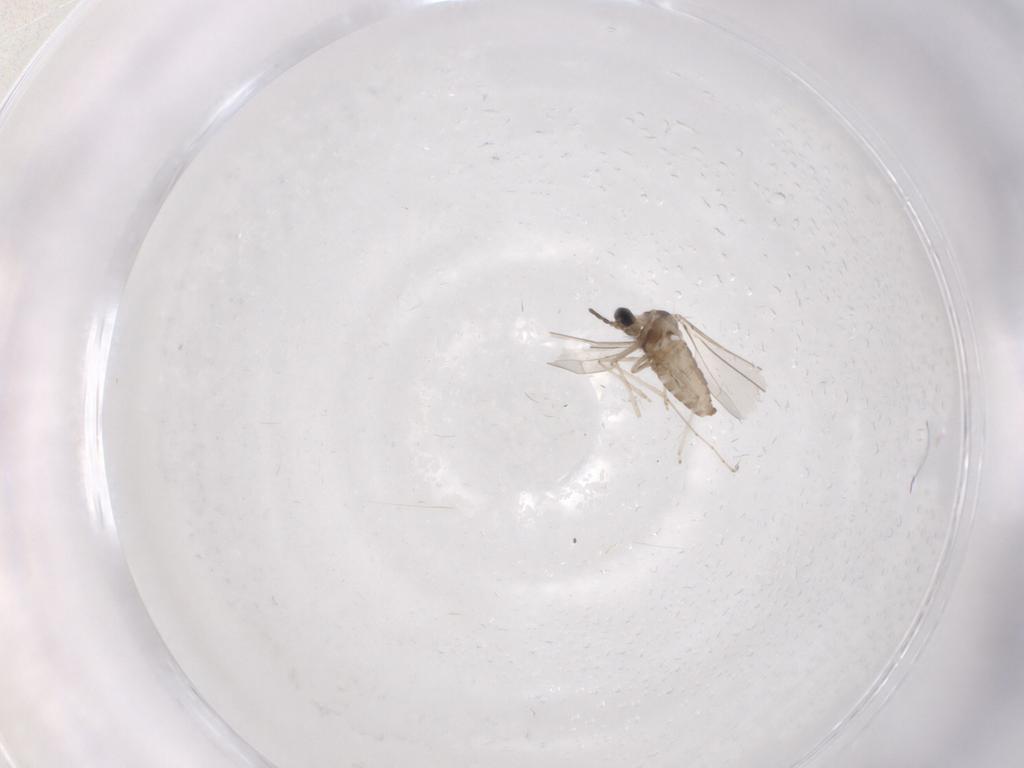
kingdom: Animalia
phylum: Arthropoda
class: Insecta
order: Diptera
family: Cecidomyiidae
